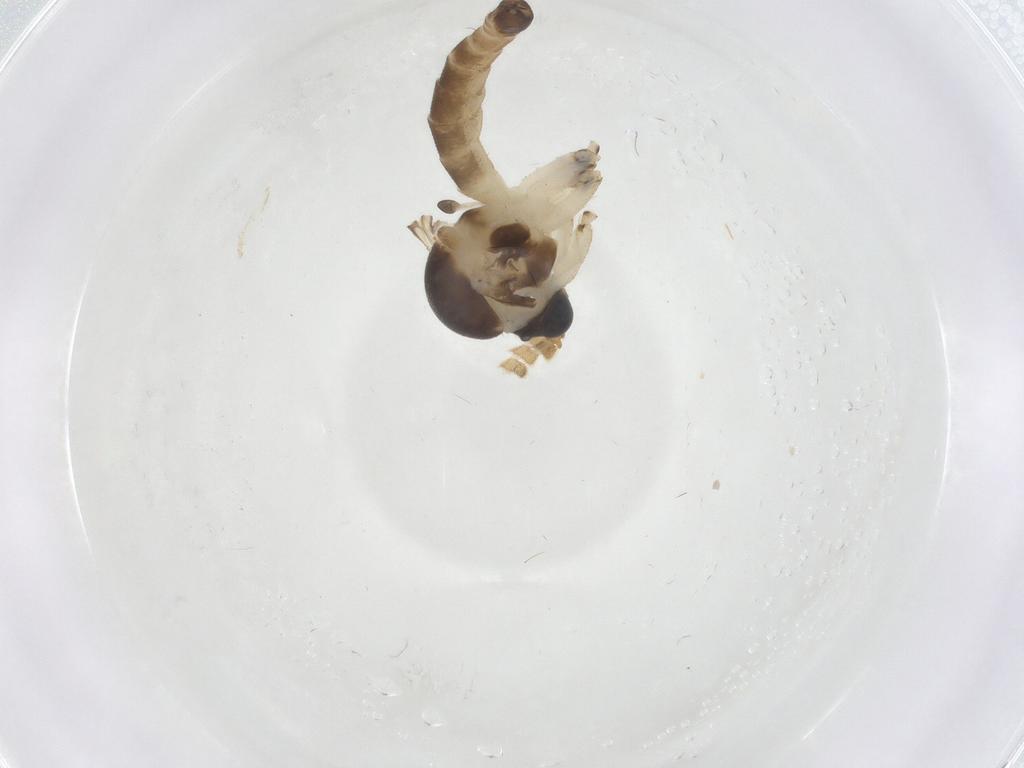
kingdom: Animalia
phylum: Arthropoda
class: Insecta
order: Diptera
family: Mycetophilidae
